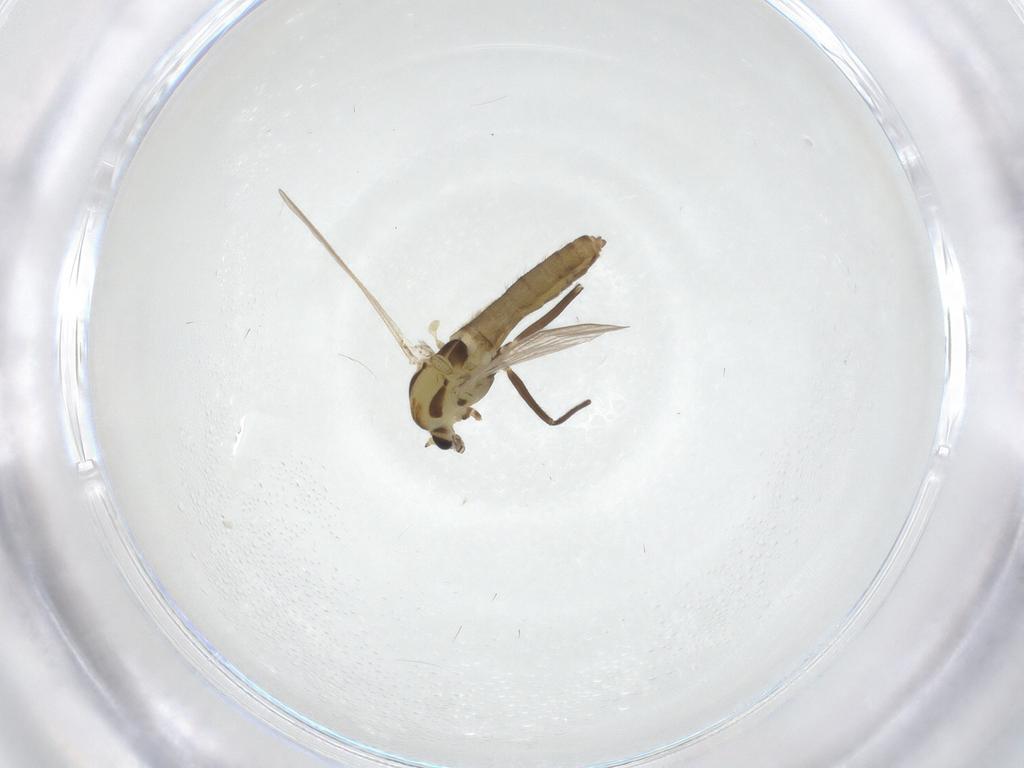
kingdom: Animalia
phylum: Arthropoda
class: Insecta
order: Diptera
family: Chironomidae
